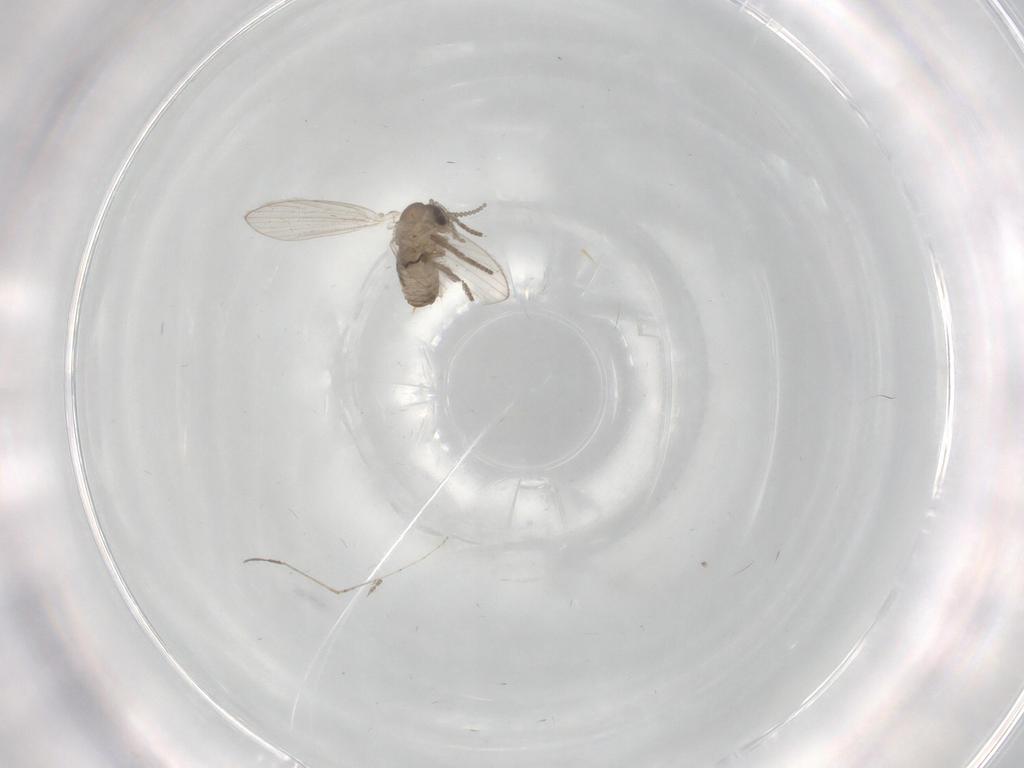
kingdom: Animalia
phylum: Arthropoda
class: Insecta
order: Diptera
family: Psychodidae
